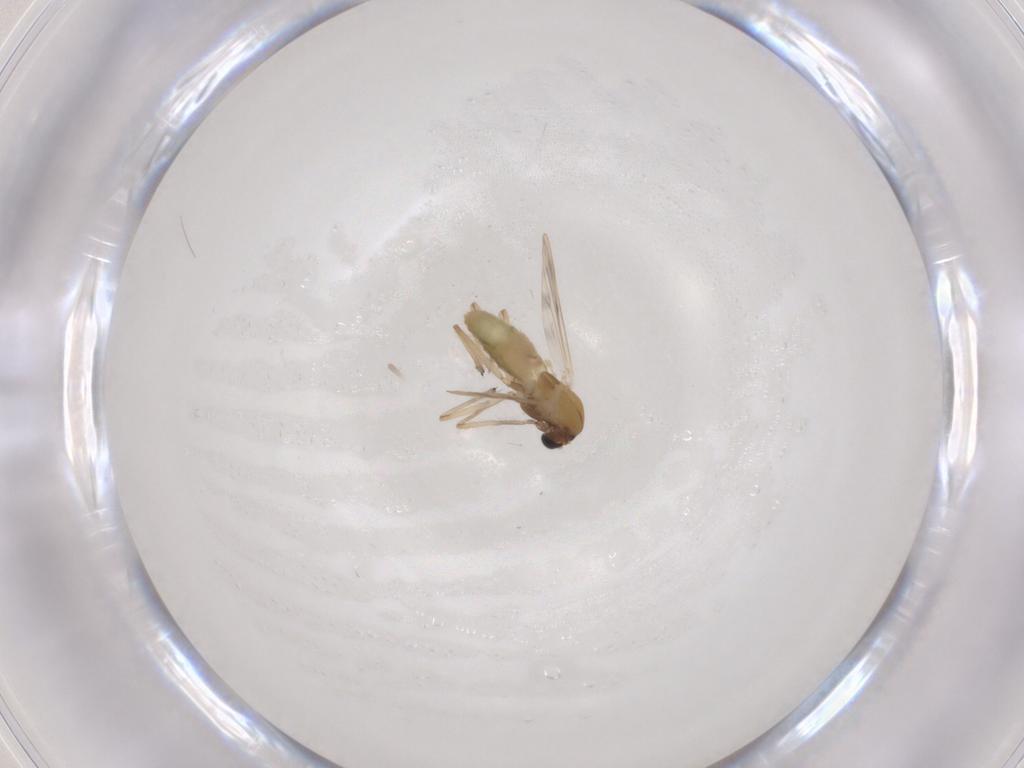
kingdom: Animalia
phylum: Arthropoda
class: Insecta
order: Diptera
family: Chironomidae
